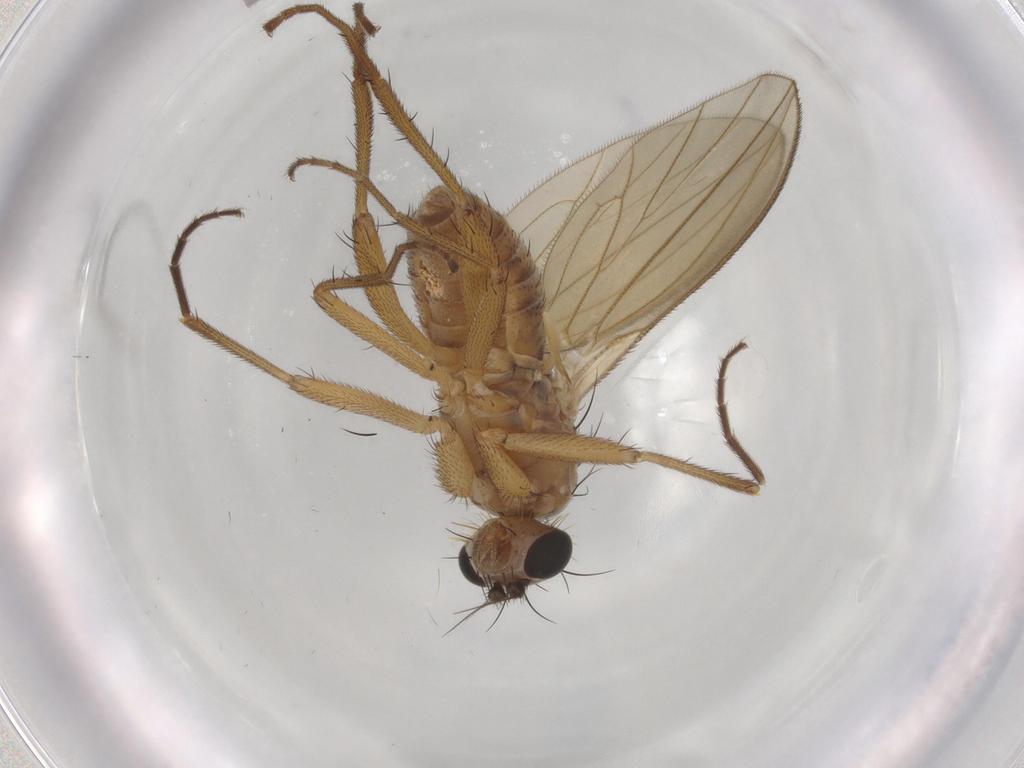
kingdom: Animalia
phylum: Arthropoda
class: Insecta
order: Diptera
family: Lonchopteridae
